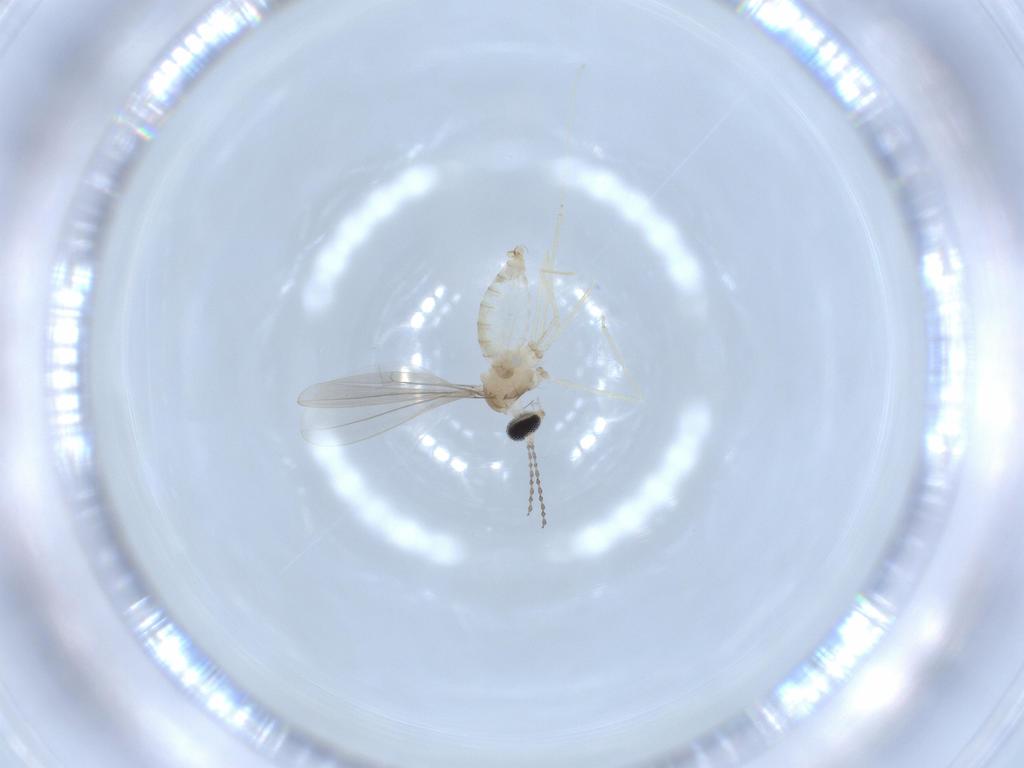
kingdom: Animalia
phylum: Arthropoda
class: Insecta
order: Diptera
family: Cecidomyiidae
